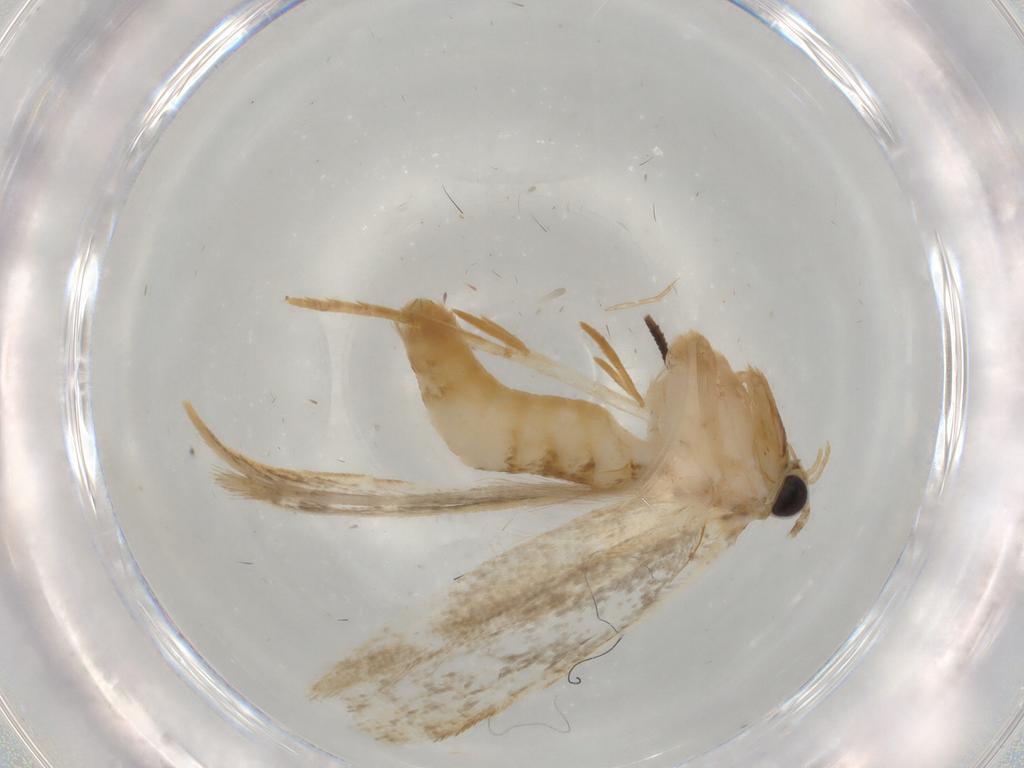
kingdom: Animalia
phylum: Arthropoda
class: Insecta
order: Lepidoptera
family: Tineidae
